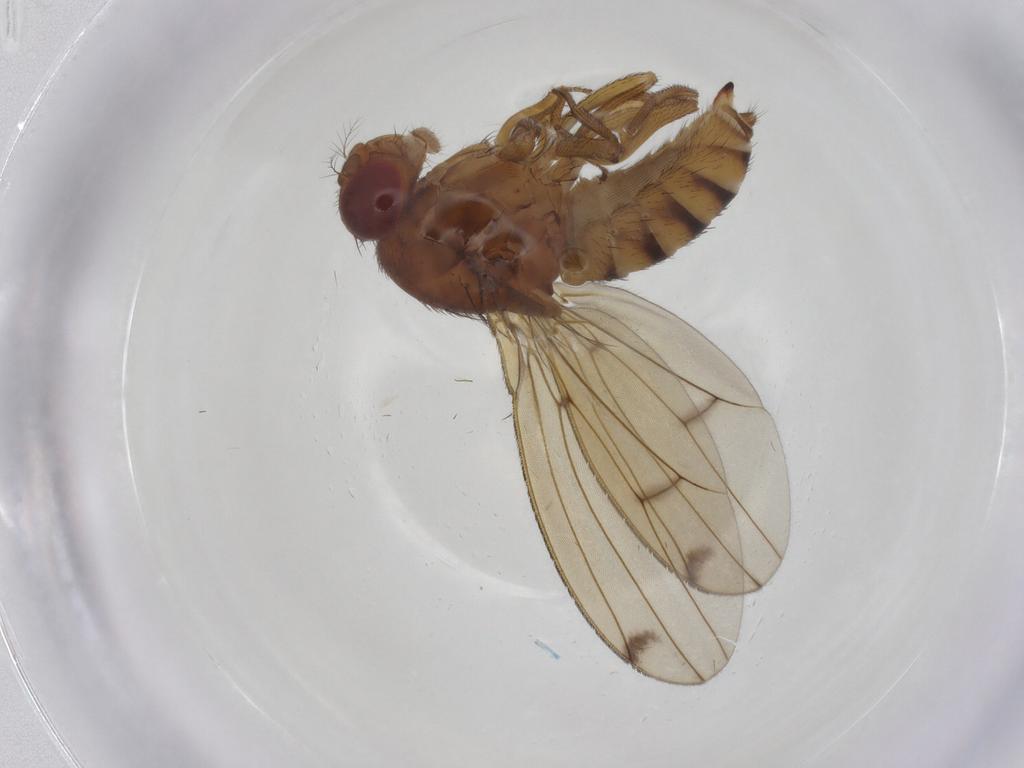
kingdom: Animalia
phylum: Arthropoda
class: Insecta
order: Diptera
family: Drosophilidae
